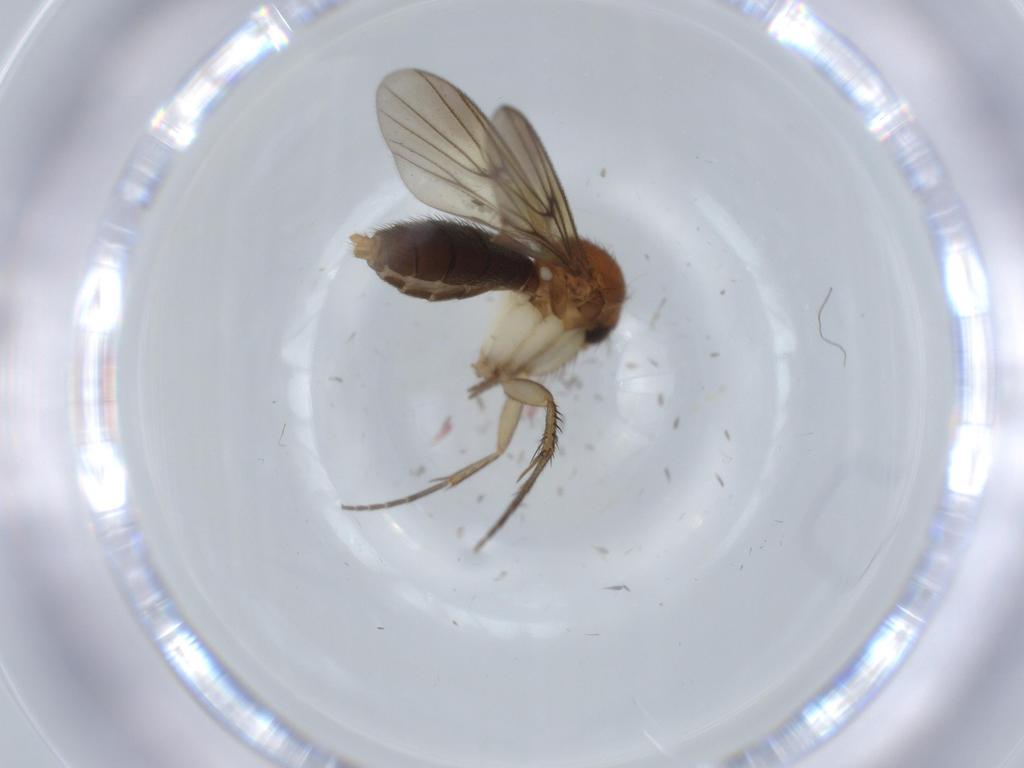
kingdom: Animalia
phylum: Arthropoda
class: Insecta
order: Diptera
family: Mycetophilidae
